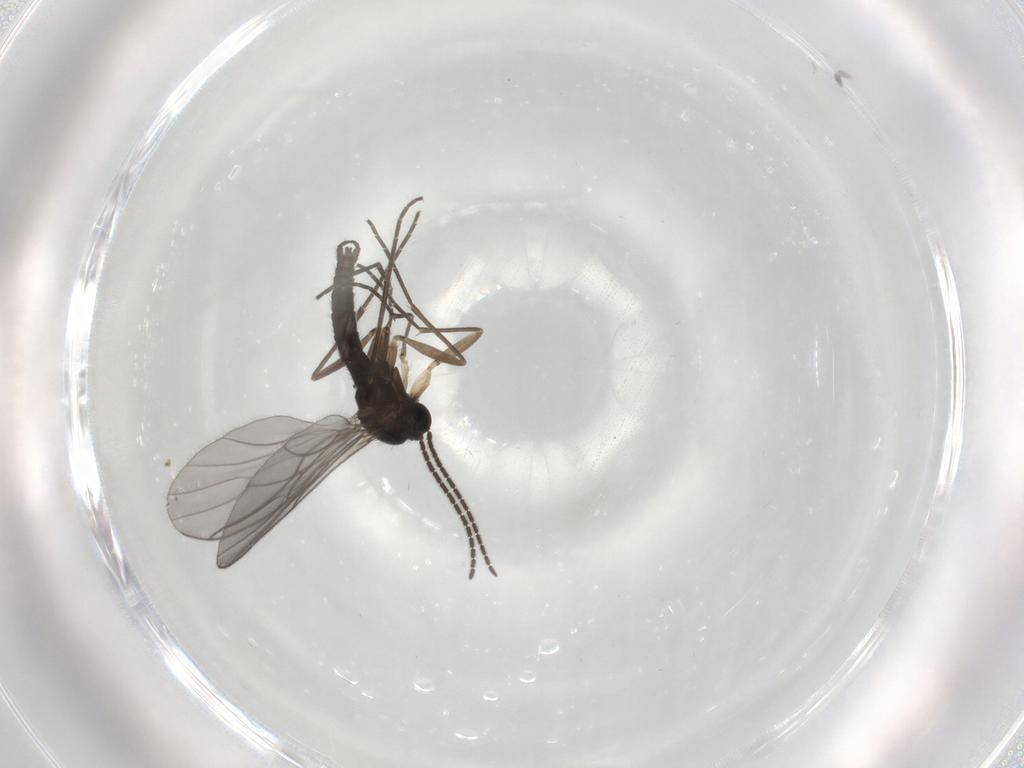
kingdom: Animalia
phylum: Arthropoda
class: Insecta
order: Diptera
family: Sciaridae
